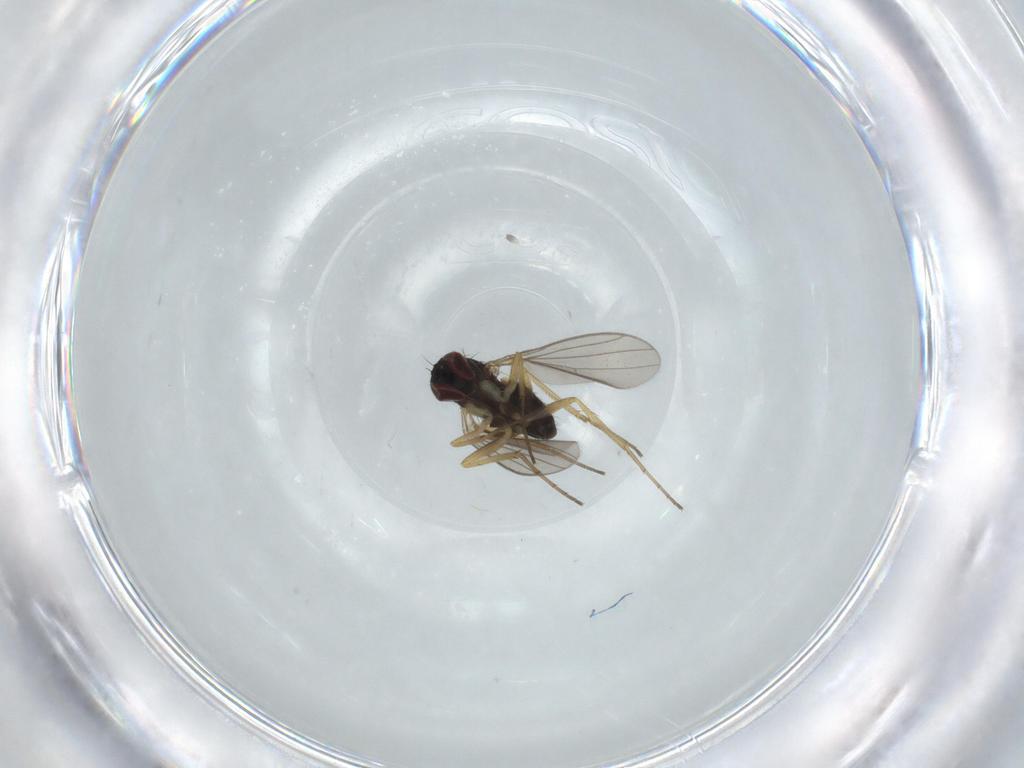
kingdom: Animalia
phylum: Arthropoda
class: Insecta
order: Diptera
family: Dolichopodidae
